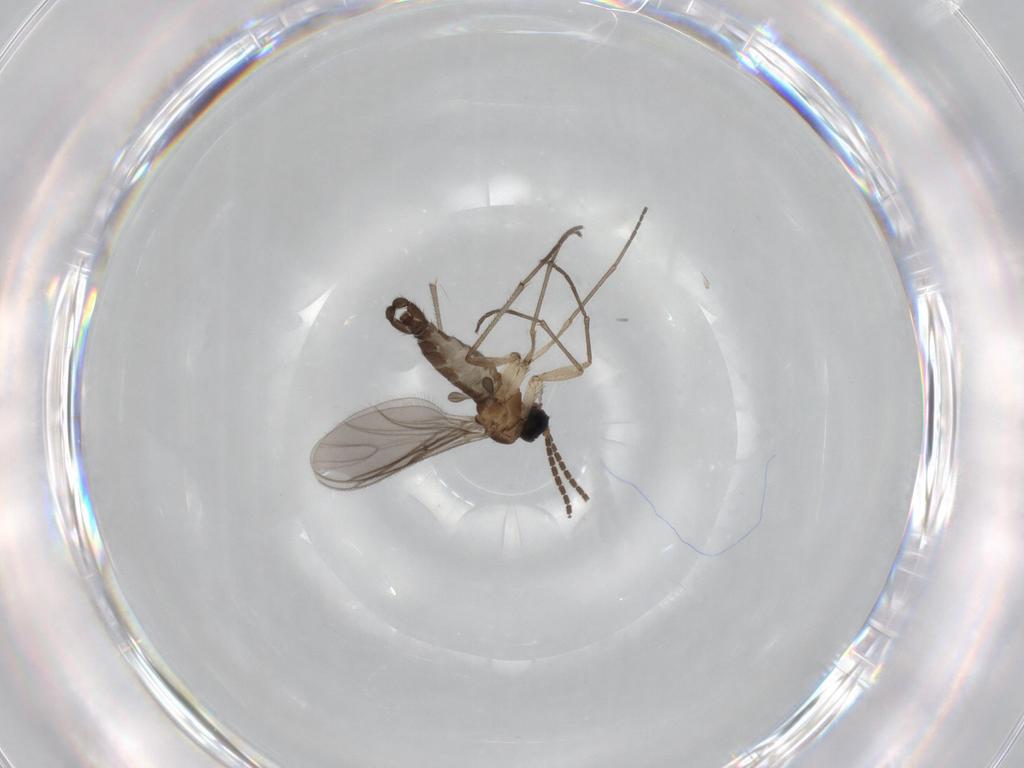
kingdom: Animalia
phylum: Arthropoda
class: Insecta
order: Diptera
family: Sciaridae
